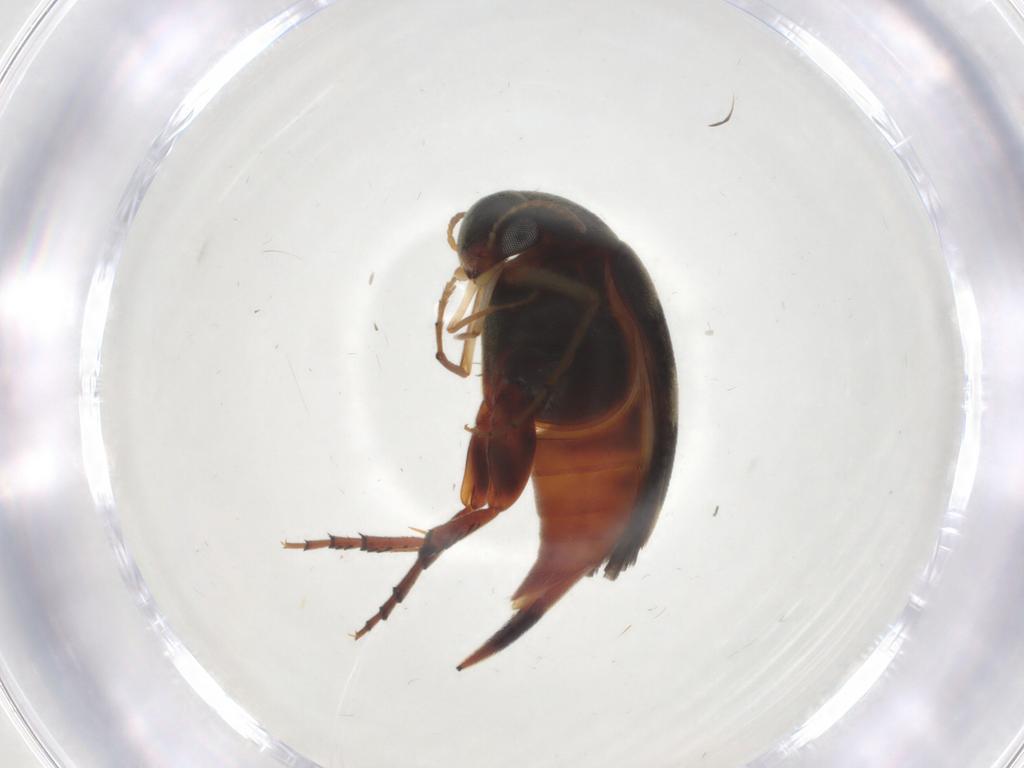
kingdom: Animalia
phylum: Arthropoda
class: Insecta
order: Coleoptera
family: Mordellidae
